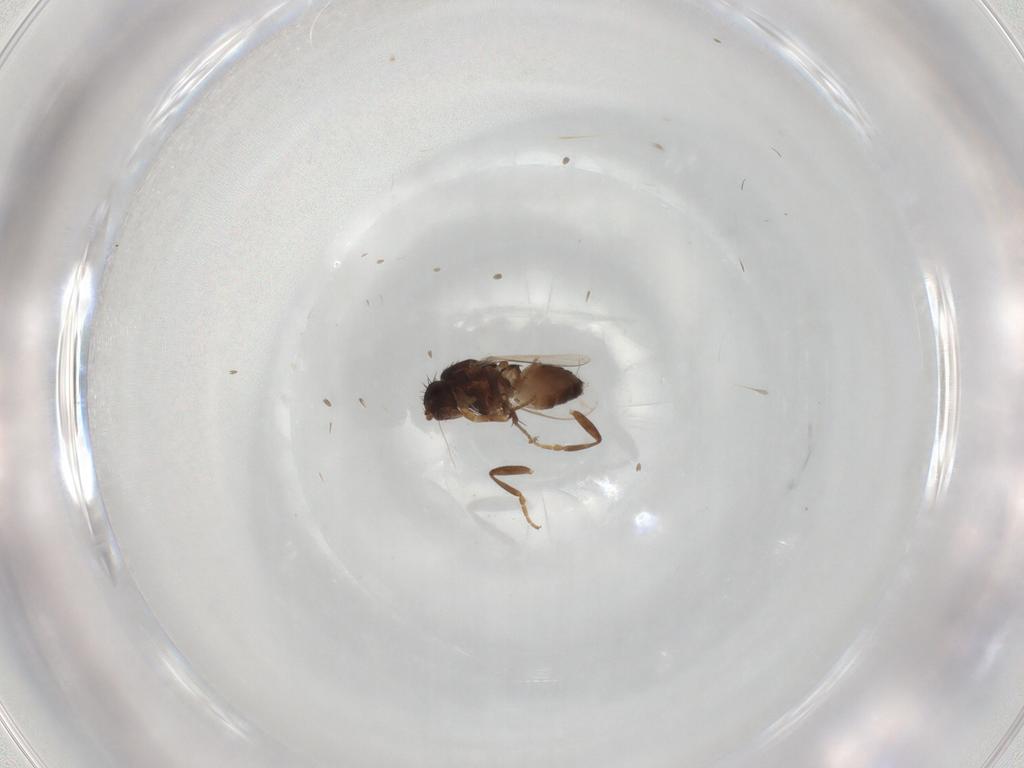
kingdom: Animalia
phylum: Arthropoda
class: Insecta
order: Diptera
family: Sphaeroceridae
